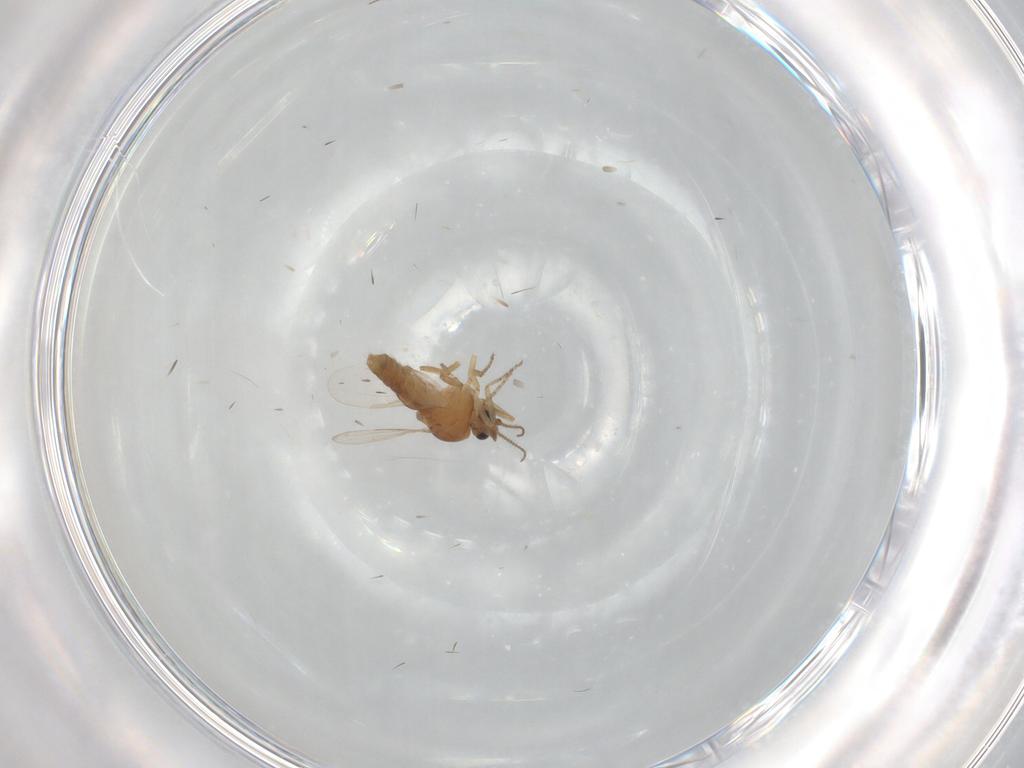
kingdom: Animalia
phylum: Arthropoda
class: Insecta
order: Diptera
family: Ceratopogonidae
